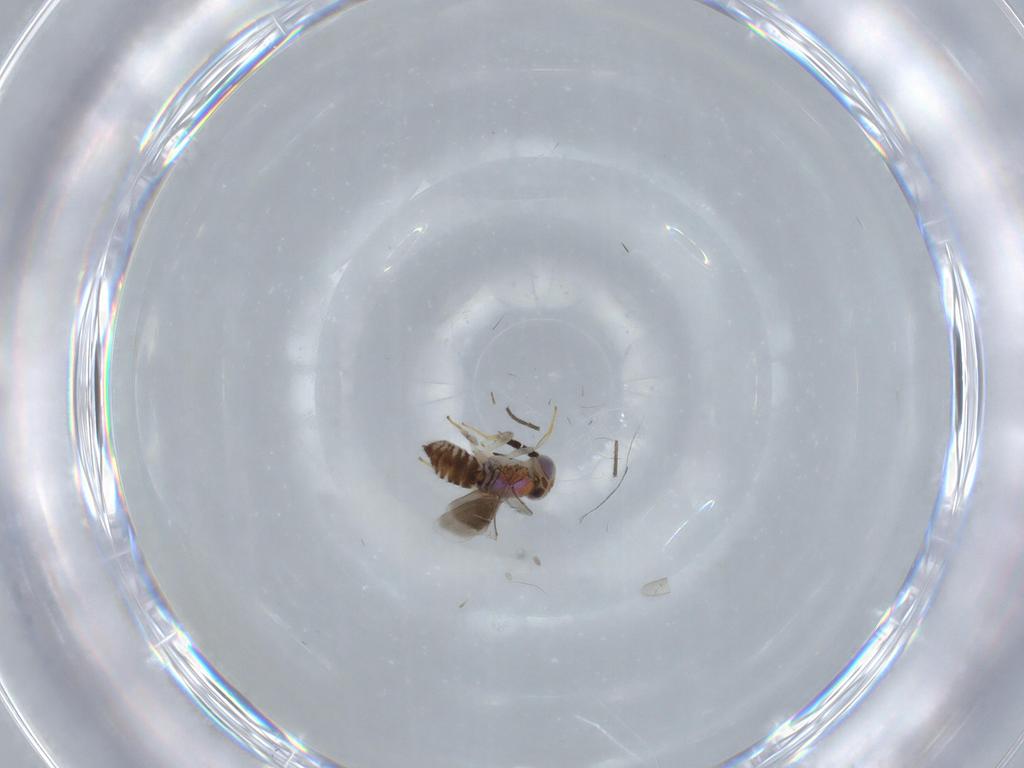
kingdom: Animalia
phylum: Arthropoda
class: Insecta
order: Hymenoptera
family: Aphelinidae
